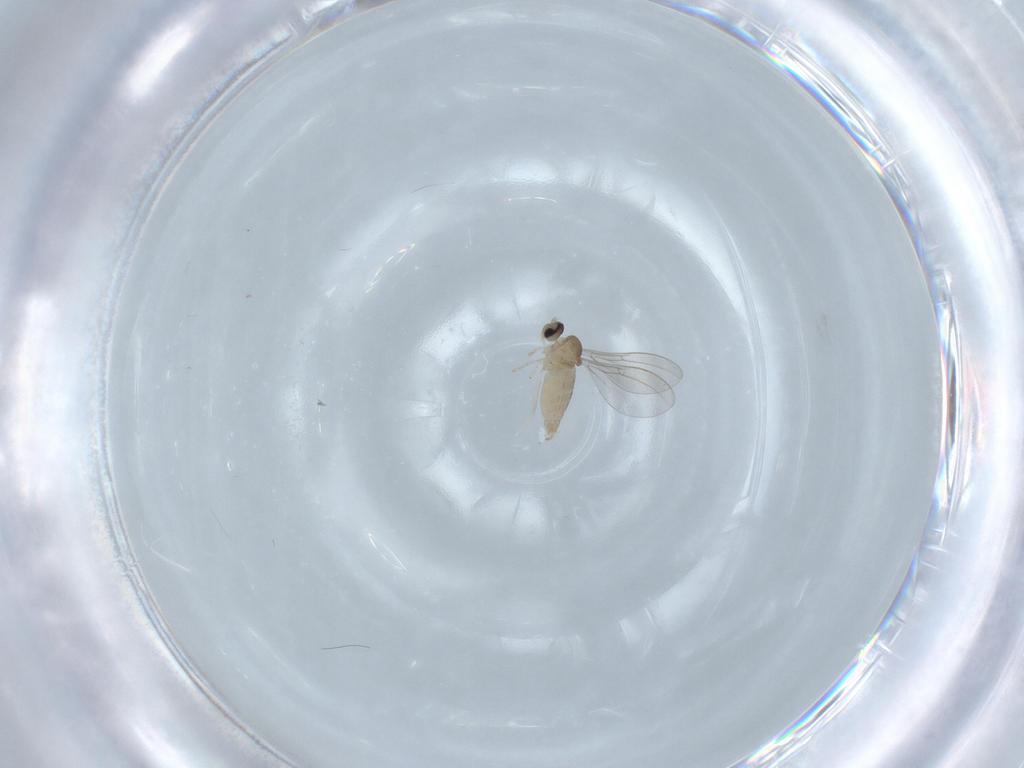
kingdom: Animalia
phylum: Arthropoda
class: Insecta
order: Diptera
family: Cecidomyiidae
